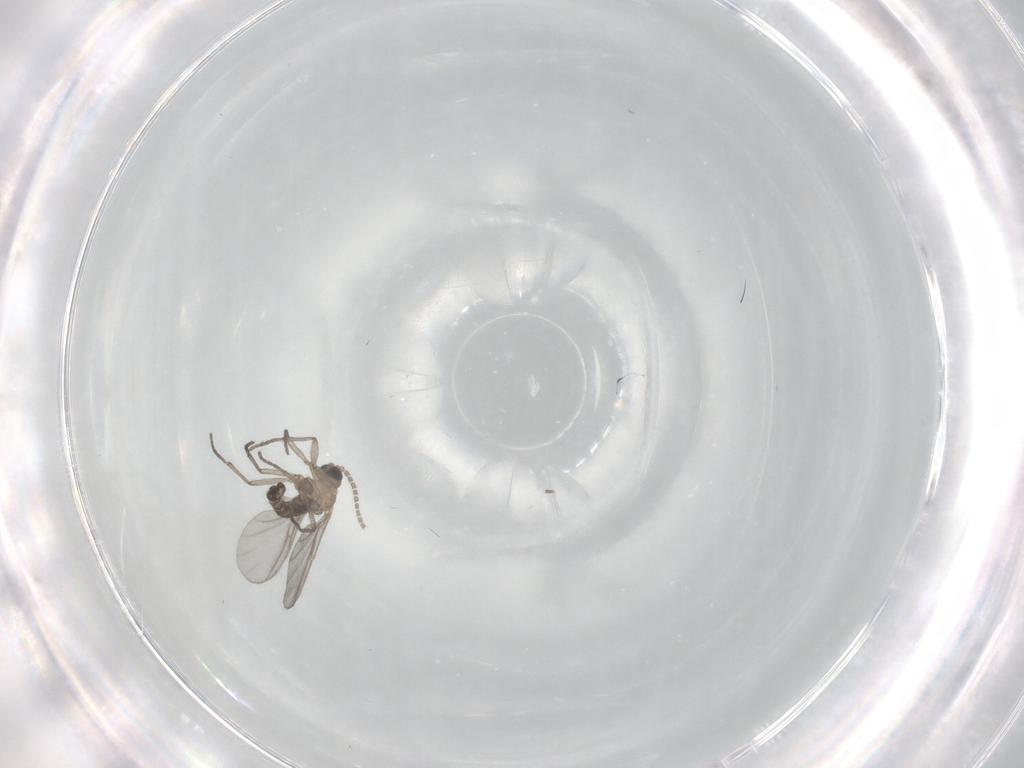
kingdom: Animalia
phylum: Arthropoda
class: Insecta
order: Diptera
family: Sciaridae
